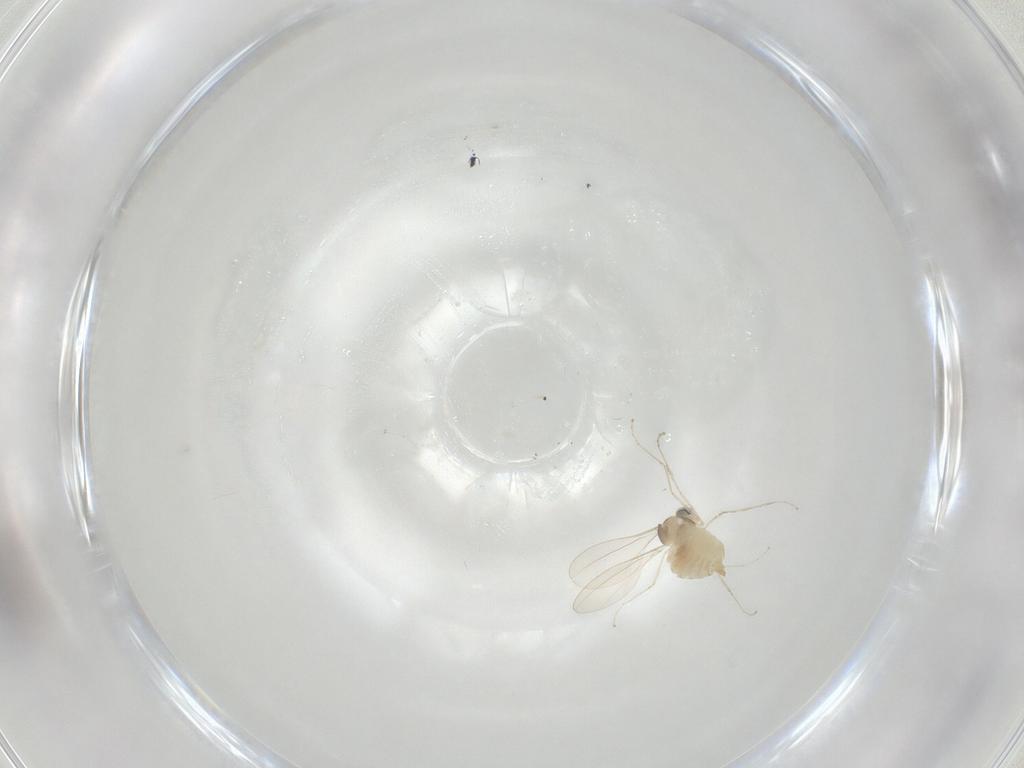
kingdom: Animalia
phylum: Arthropoda
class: Insecta
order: Diptera
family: Cecidomyiidae
